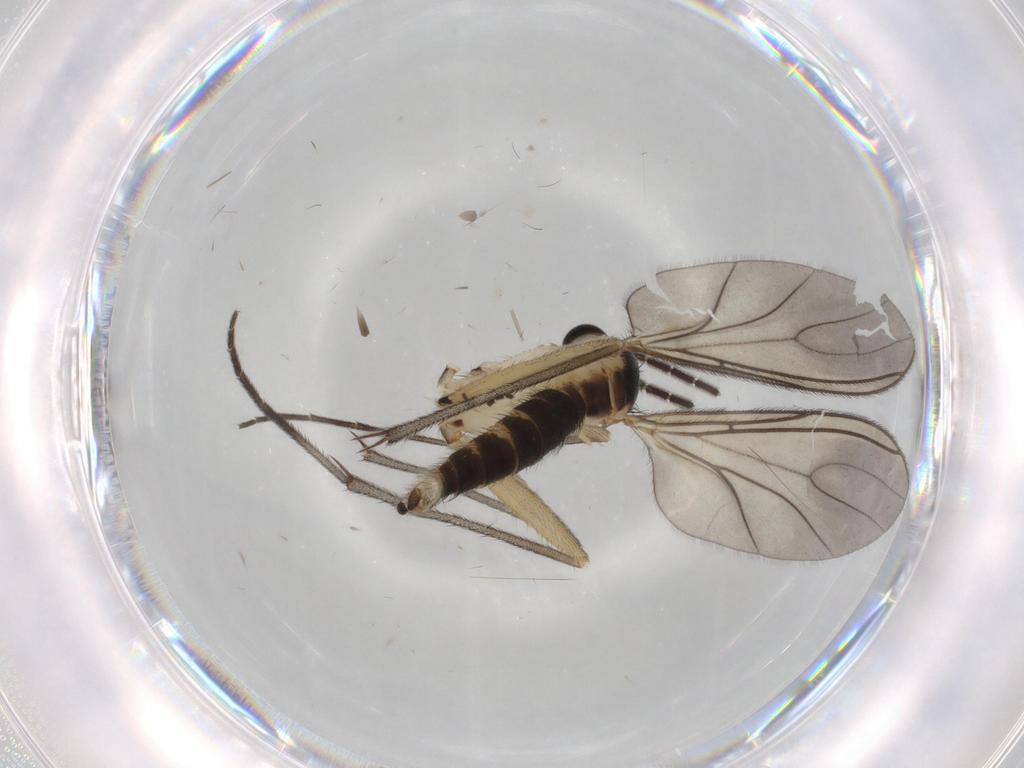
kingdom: Animalia
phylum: Arthropoda
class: Insecta
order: Diptera
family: Sciaridae
